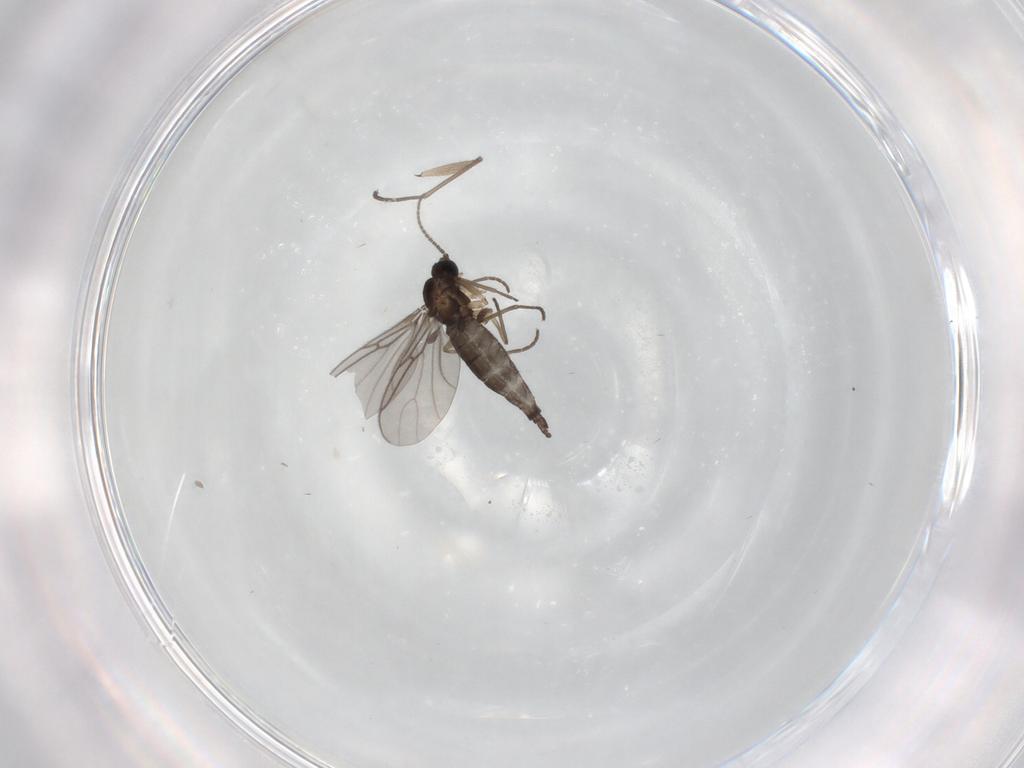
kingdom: Animalia
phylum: Arthropoda
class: Insecta
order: Diptera
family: Sciaridae
